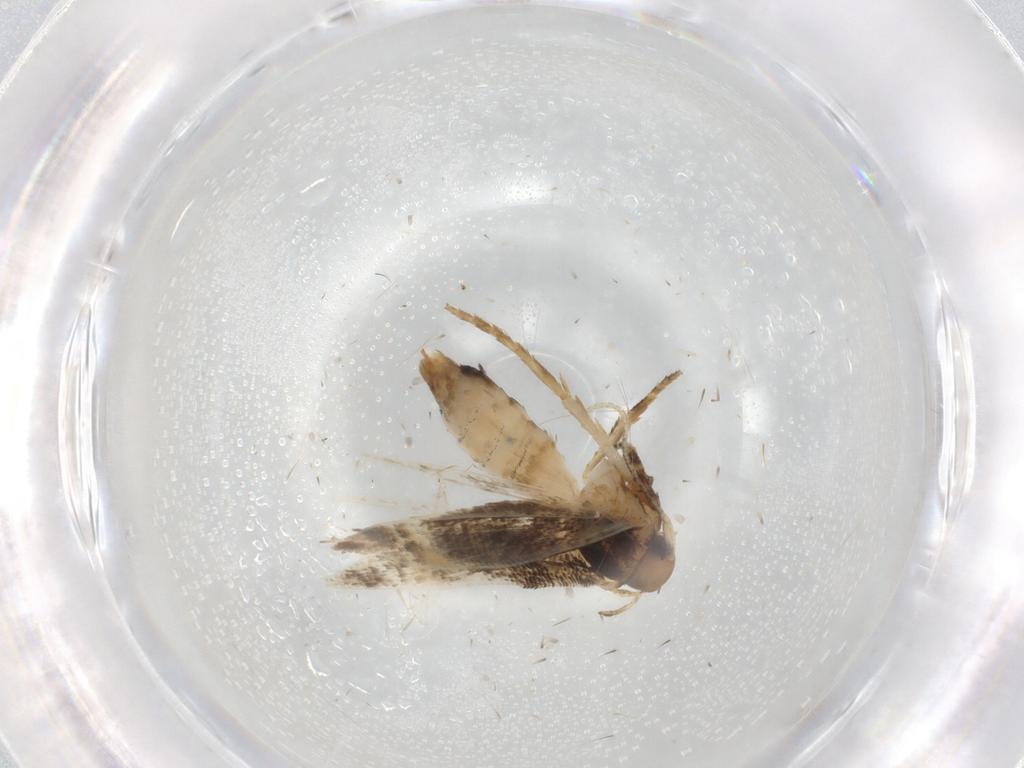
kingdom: Animalia
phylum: Arthropoda
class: Insecta
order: Lepidoptera
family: Cosmopterigidae
